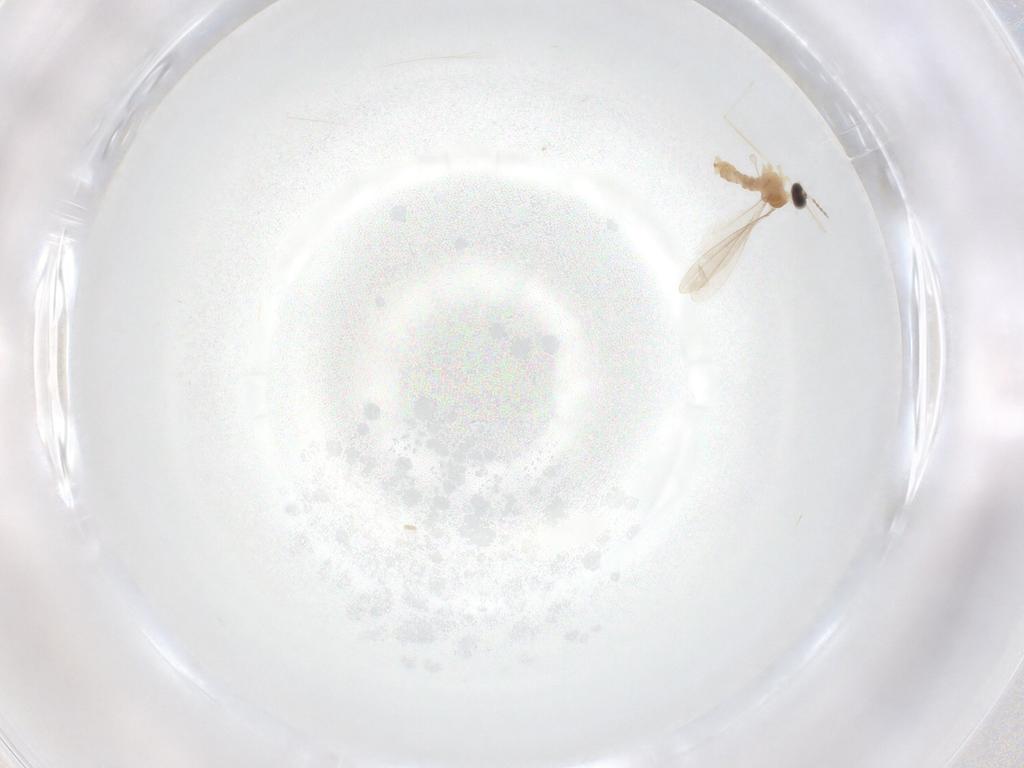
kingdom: Animalia
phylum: Arthropoda
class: Insecta
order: Diptera
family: Cecidomyiidae
